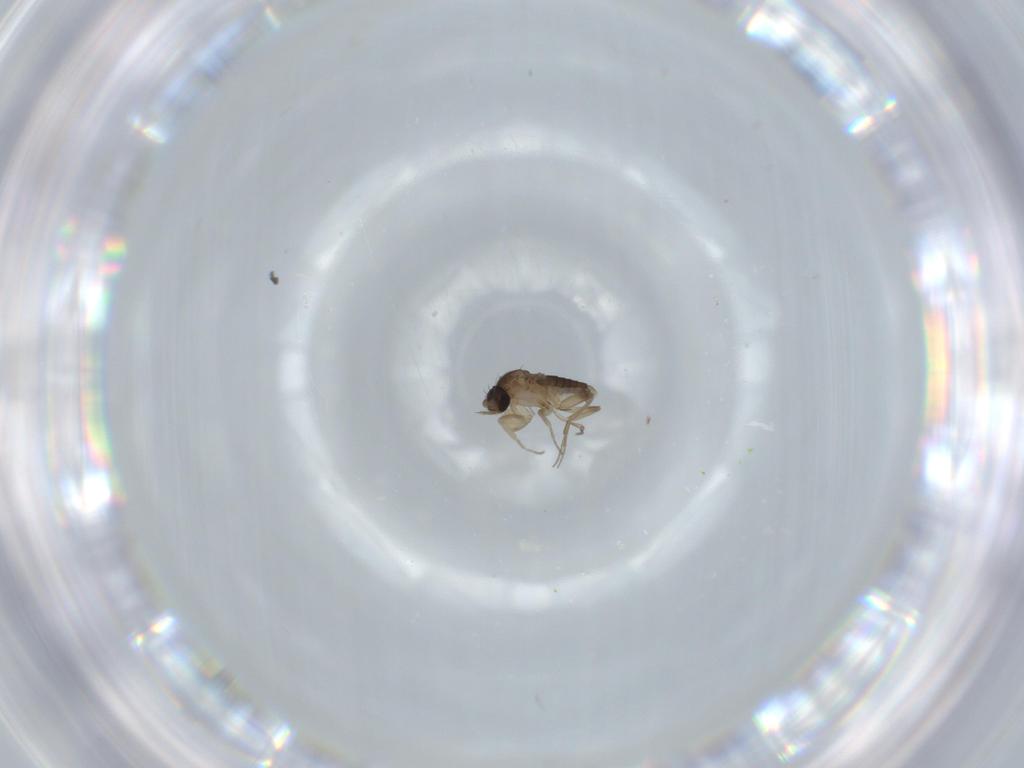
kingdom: Animalia
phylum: Arthropoda
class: Insecta
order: Diptera
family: Phoridae
